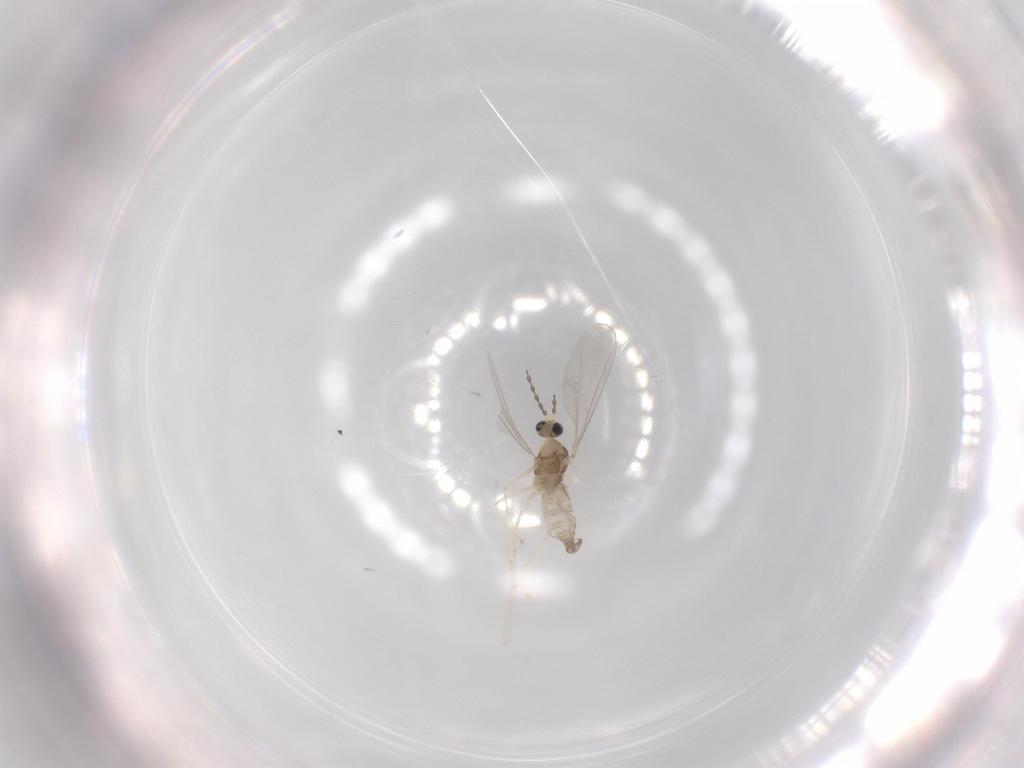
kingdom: Animalia
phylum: Arthropoda
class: Insecta
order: Diptera
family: Cecidomyiidae
